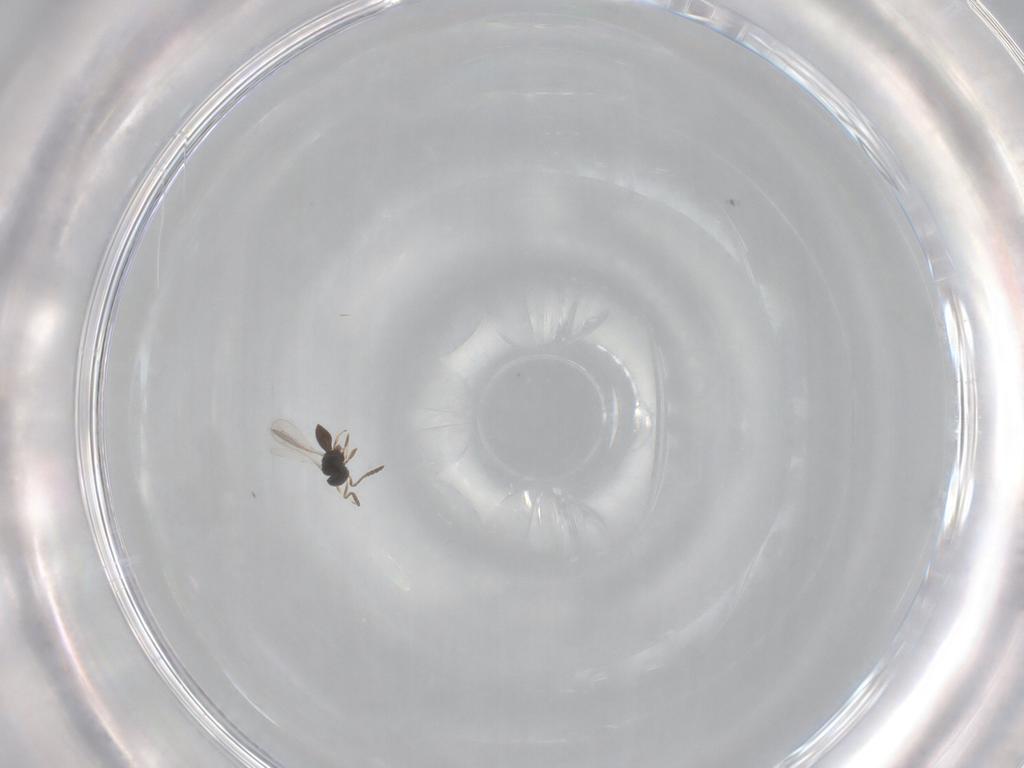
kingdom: Animalia
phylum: Arthropoda
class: Insecta
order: Hymenoptera
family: Scelionidae
